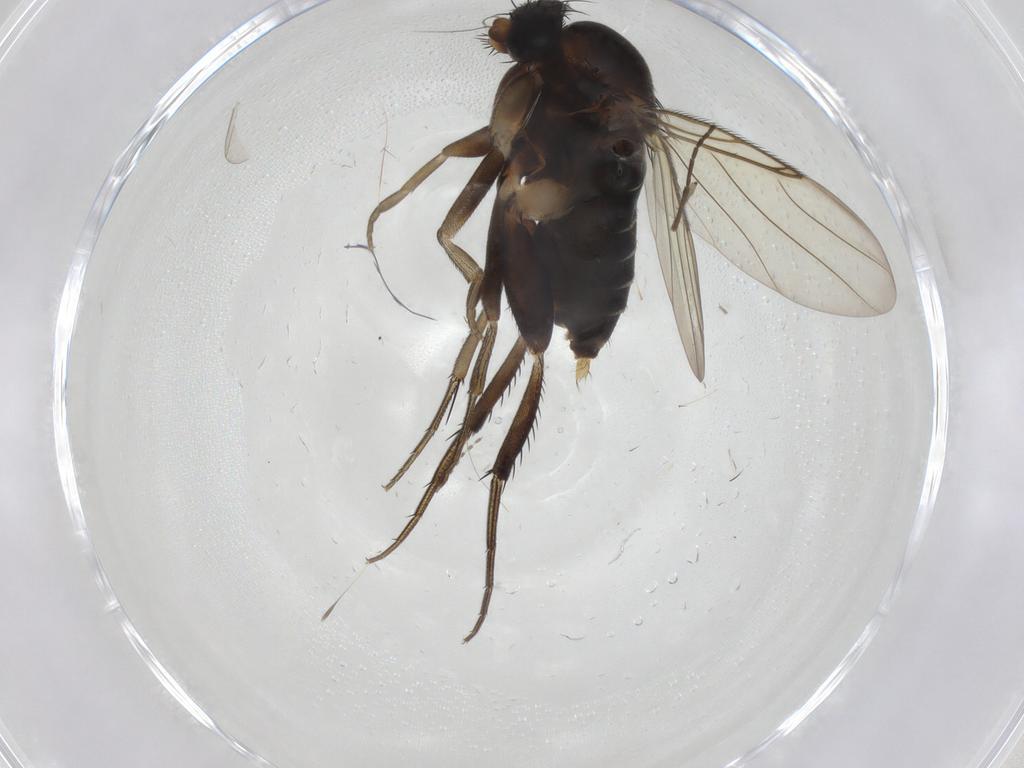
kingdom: Animalia
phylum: Arthropoda
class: Insecta
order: Diptera
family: Phoridae
